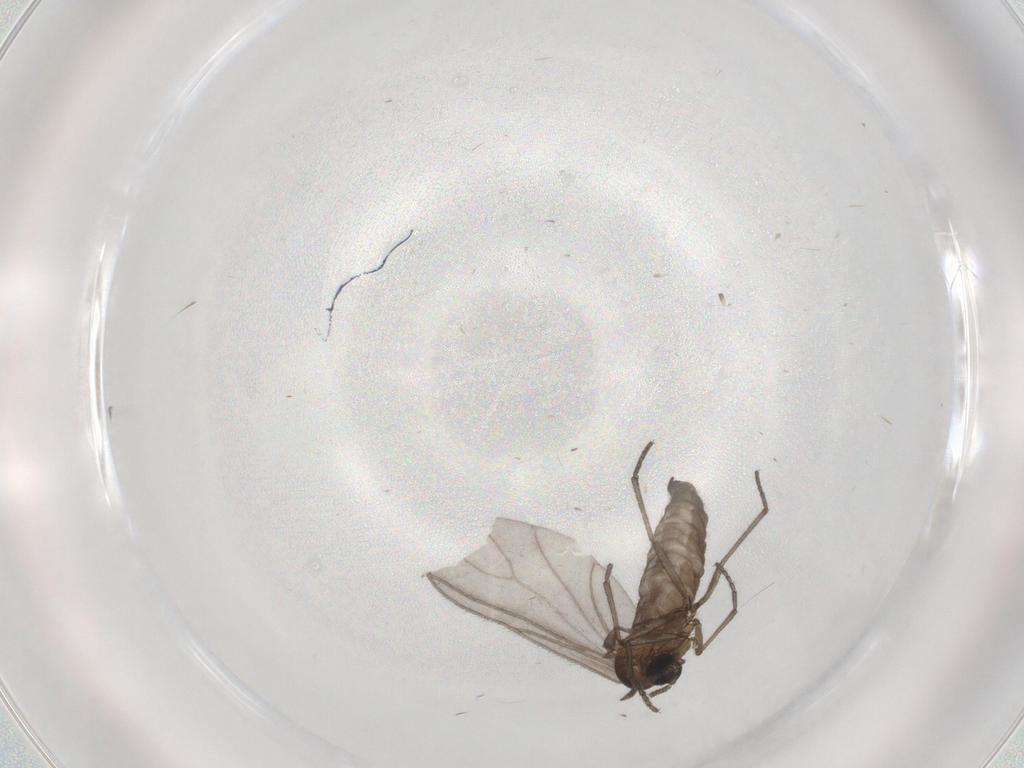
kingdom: Animalia
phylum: Arthropoda
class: Insecta
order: Diptera
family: Sciaridae
